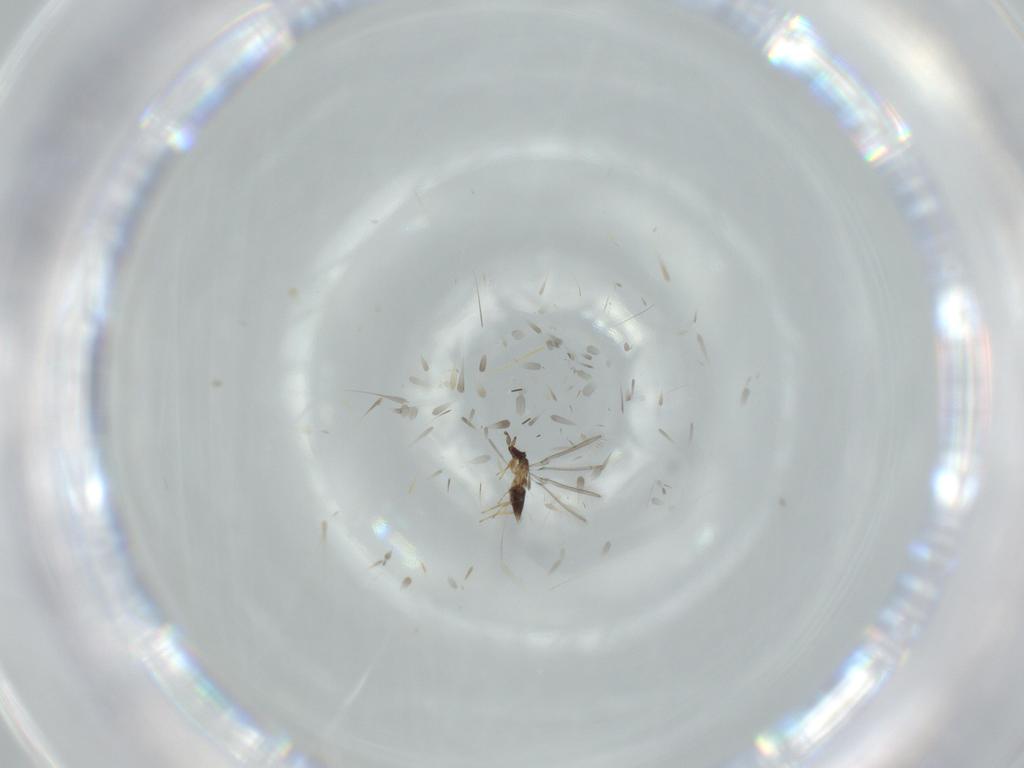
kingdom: Animalia
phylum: Arthropoda
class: Insecta
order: Hymenoptera
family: Mymaridae
